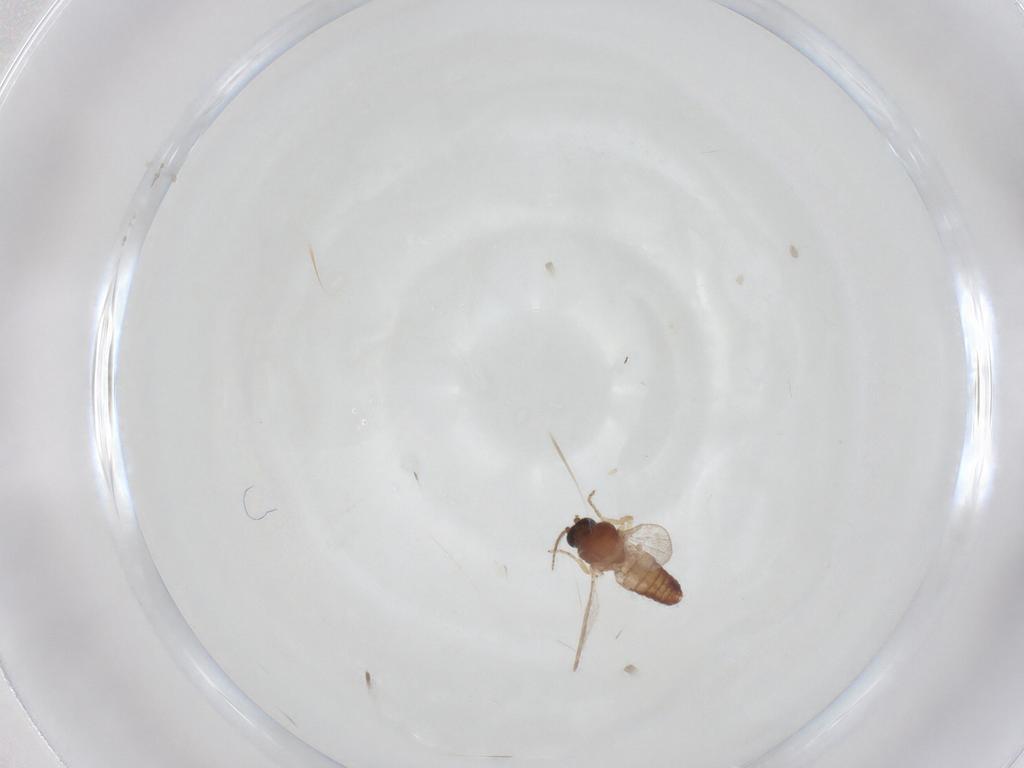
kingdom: Animalia
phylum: Arthropoda
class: Insecta
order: Diptera
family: Ceratopogonidae
